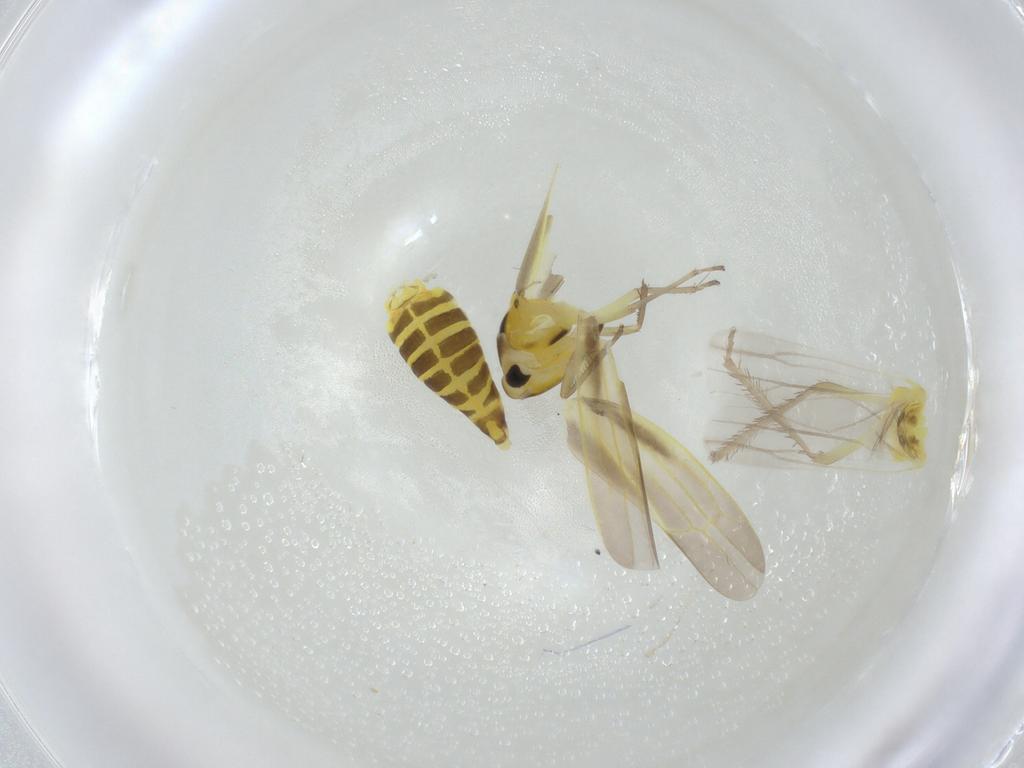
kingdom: Animalia
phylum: Arthropoda
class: Insecta
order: Hemiptera
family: Cicadellidae
